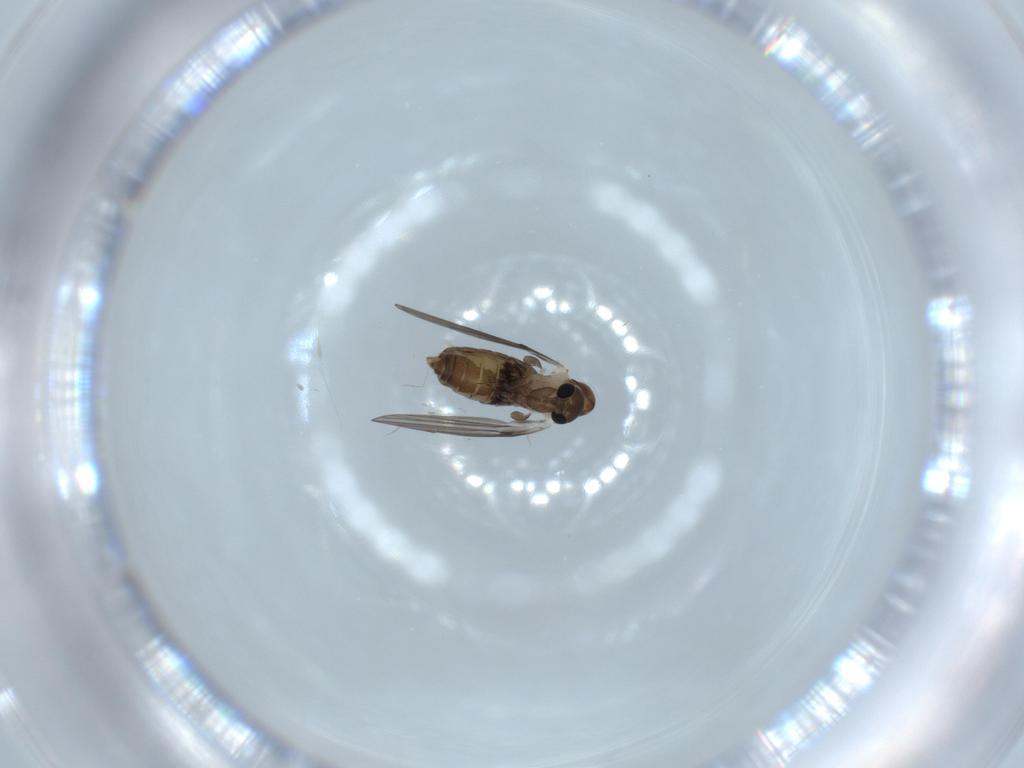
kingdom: Animalia
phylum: Arthropoda
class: Insecta
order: Diptera
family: Psychodidae
